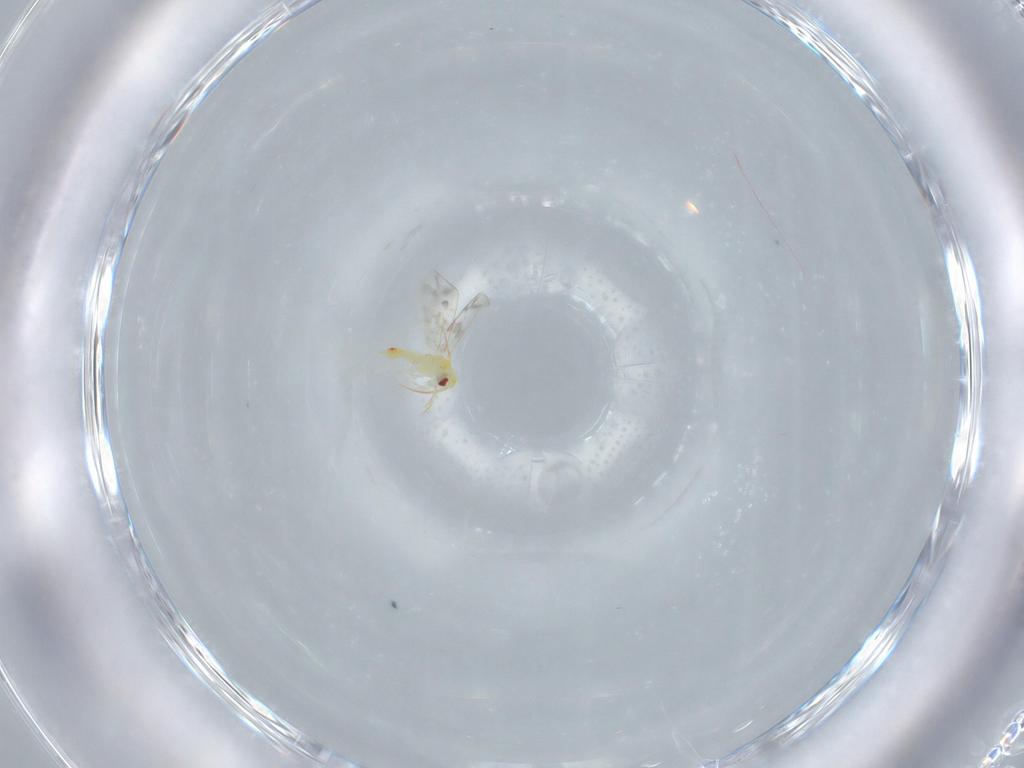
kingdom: Animalia
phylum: Arthropoda
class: Insecta
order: Hemiptera
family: Aleyrodidae
